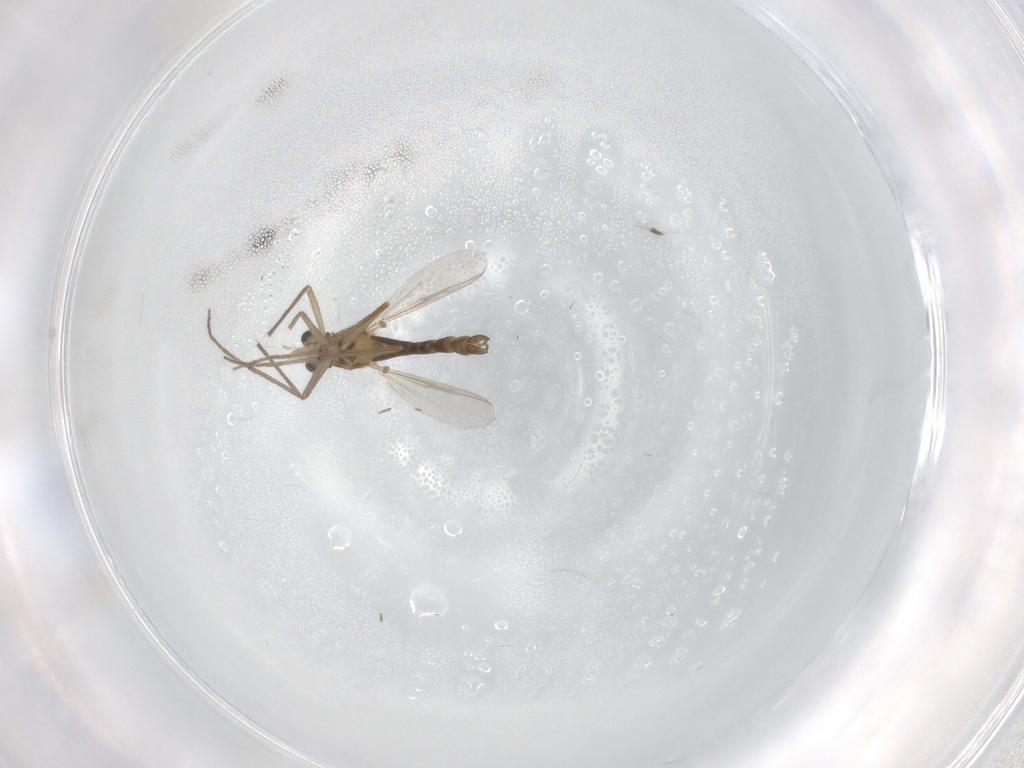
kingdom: Animalia
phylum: Arthropoda
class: Insecta
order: Diptera
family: Chironomidae
